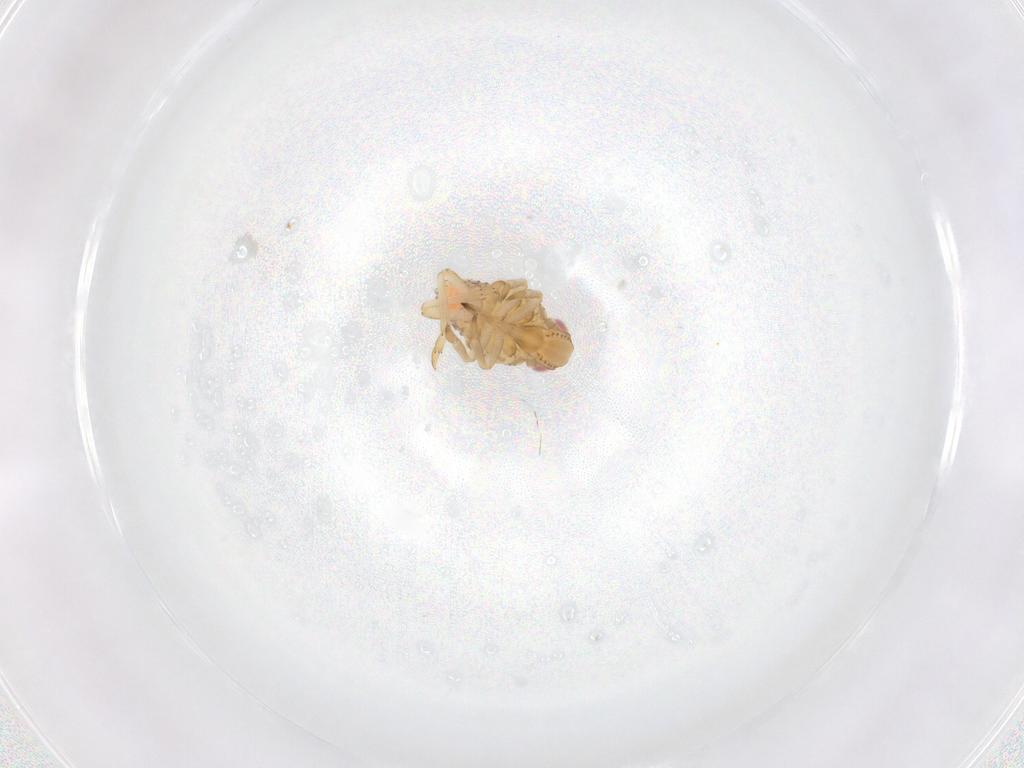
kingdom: Animalia
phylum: Arthropoda
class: Insecta
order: Hemiptera
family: Tropiduchidae
